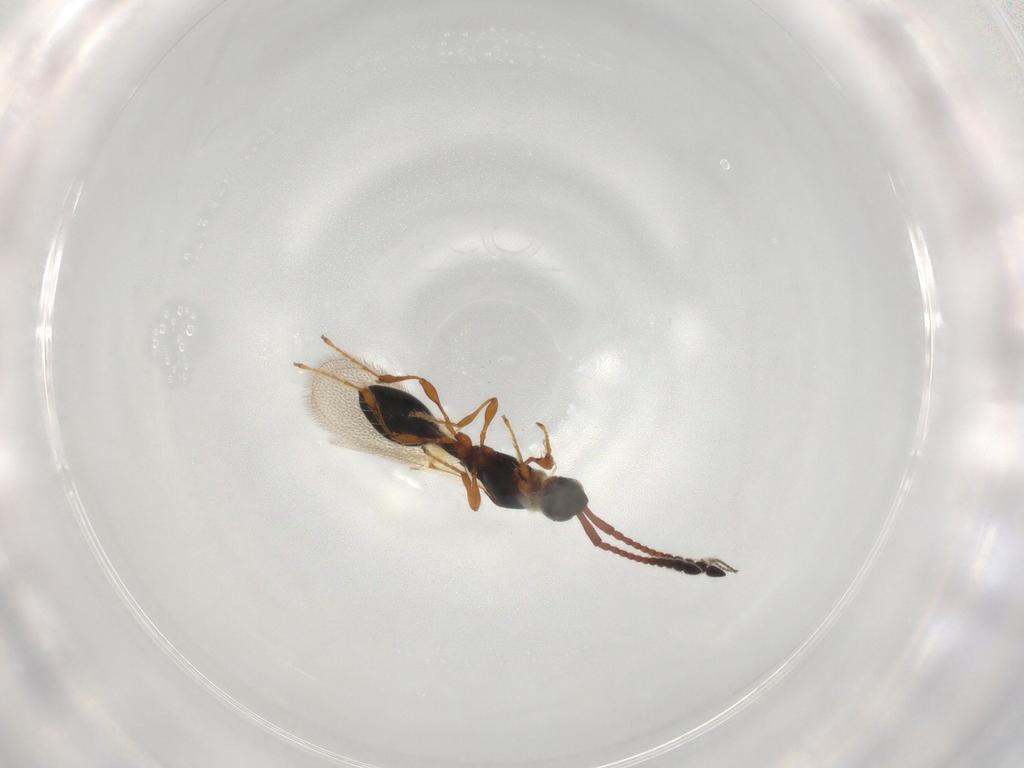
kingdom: Animalia
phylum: Arthropoda
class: Insecta
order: Hymenoptera
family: Diapriidae
